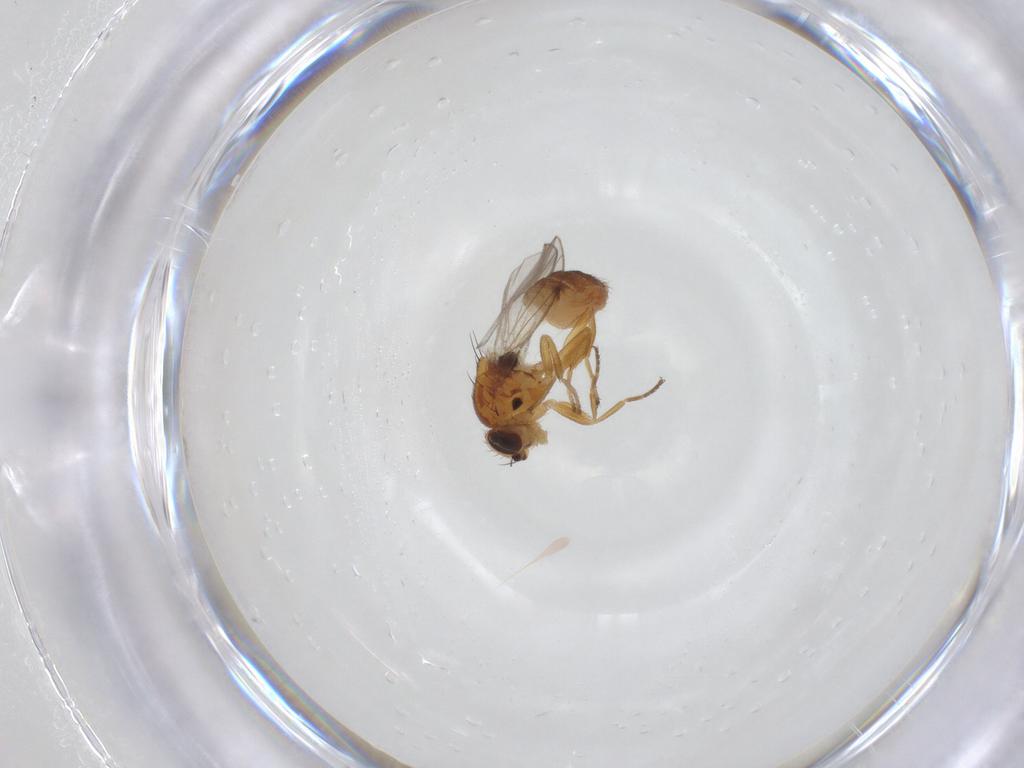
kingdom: Animalia
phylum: Arthropoda
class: Insecta
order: Diptera
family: Chloropidae
